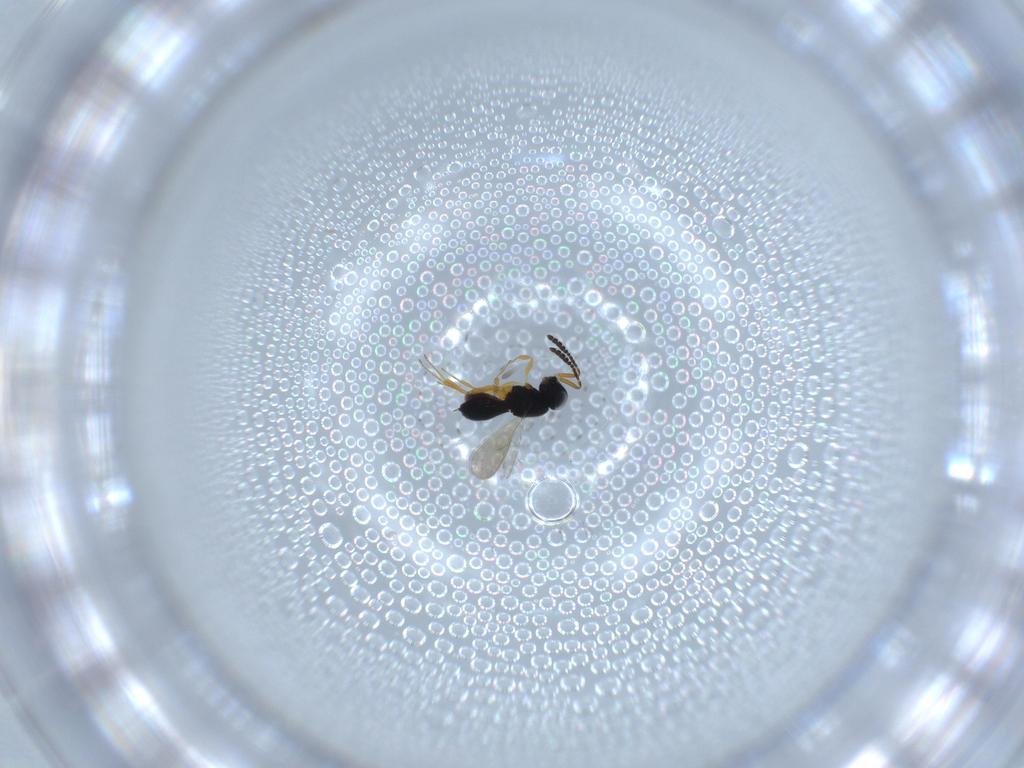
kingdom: Animalia
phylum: Arthropoda
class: Insecta
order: Hymenoptera
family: Scelionidae
